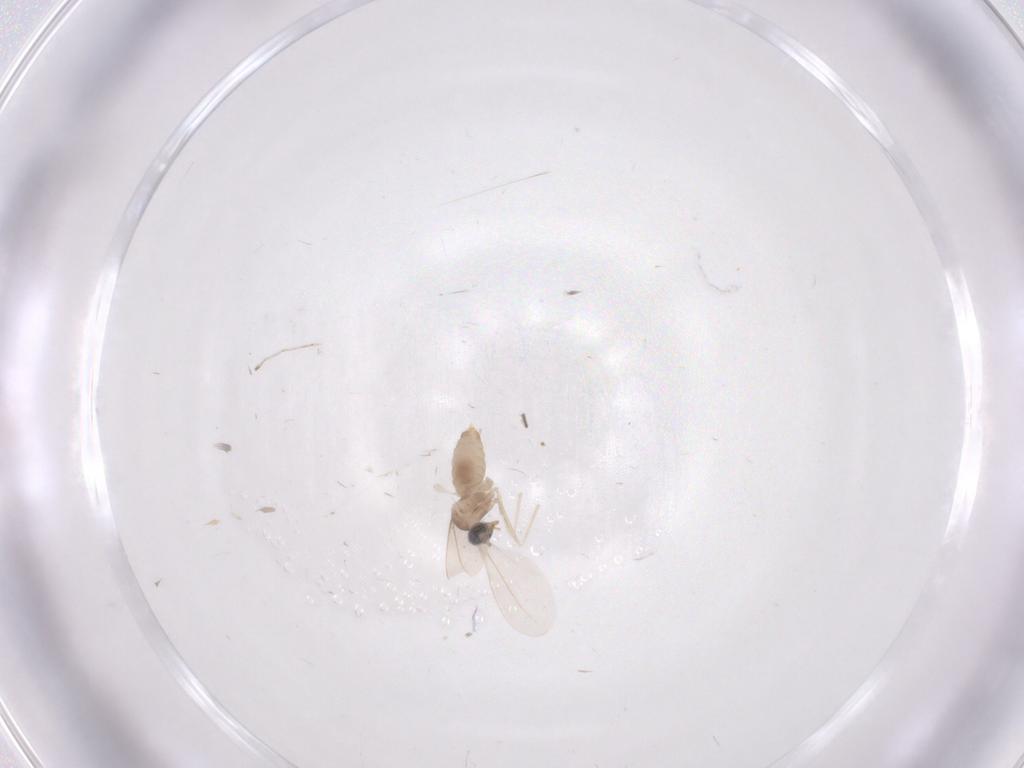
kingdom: Animalia
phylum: Arthropoda
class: Insecta
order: Diptera
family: Cecidomyiidae
